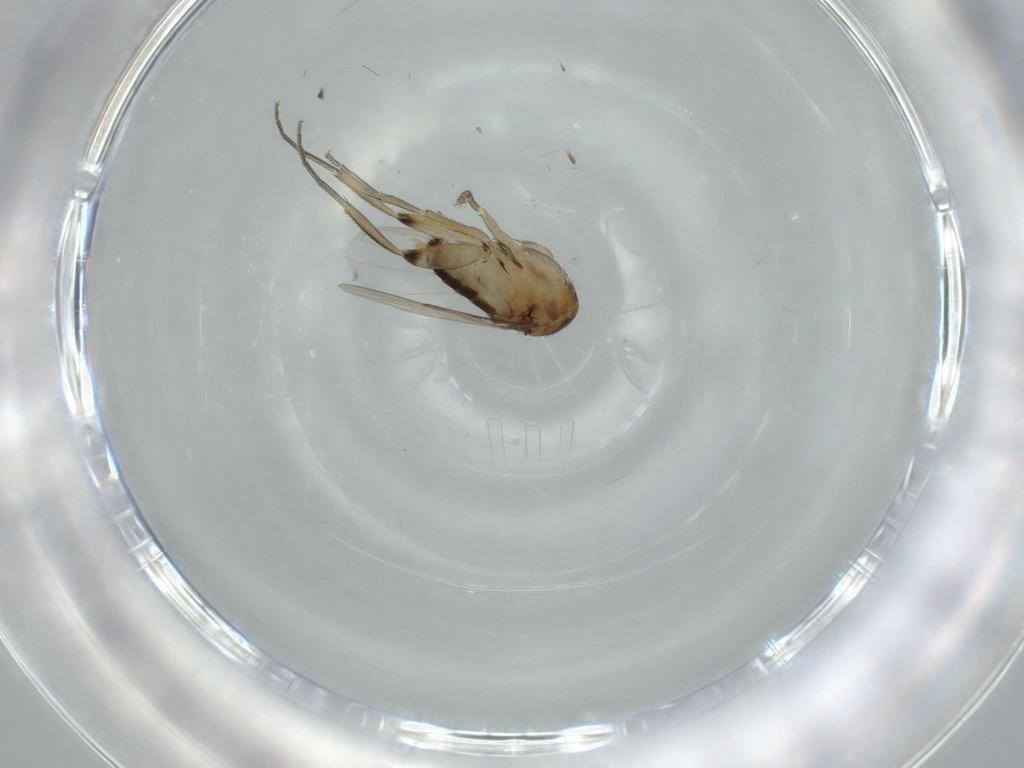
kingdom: Animalia
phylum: Arthropoda
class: Insecta
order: Diptera
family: Phoridae
